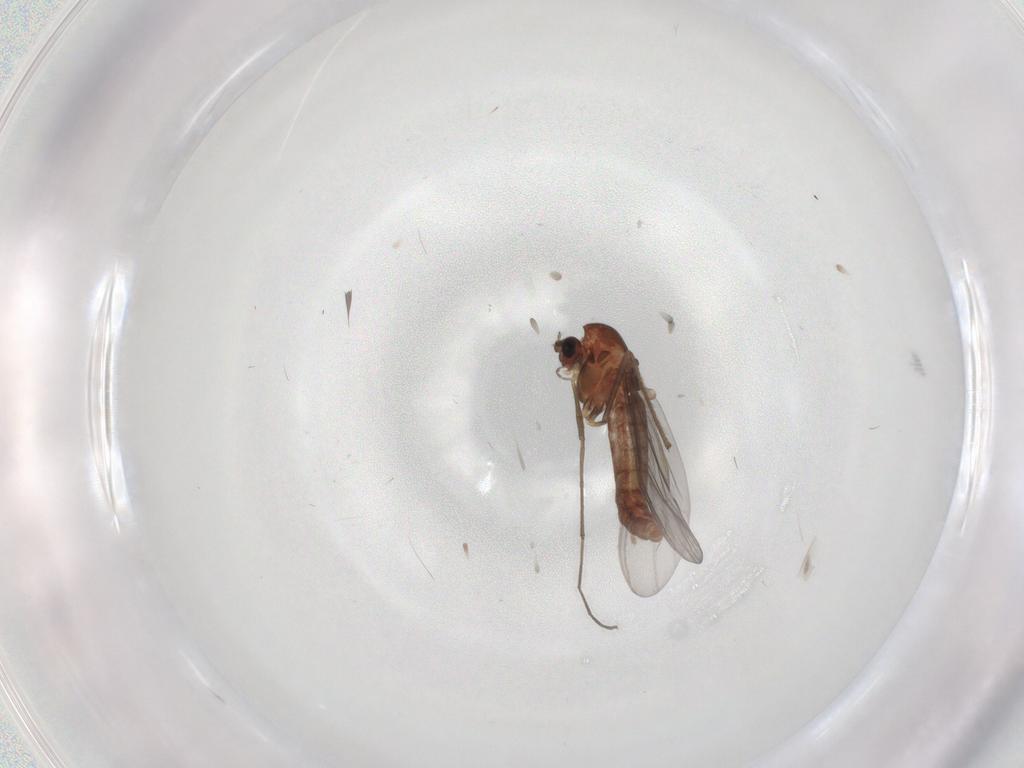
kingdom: Animalia
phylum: Arthropoda
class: Insecta
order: Diptera
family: Chironomidae
